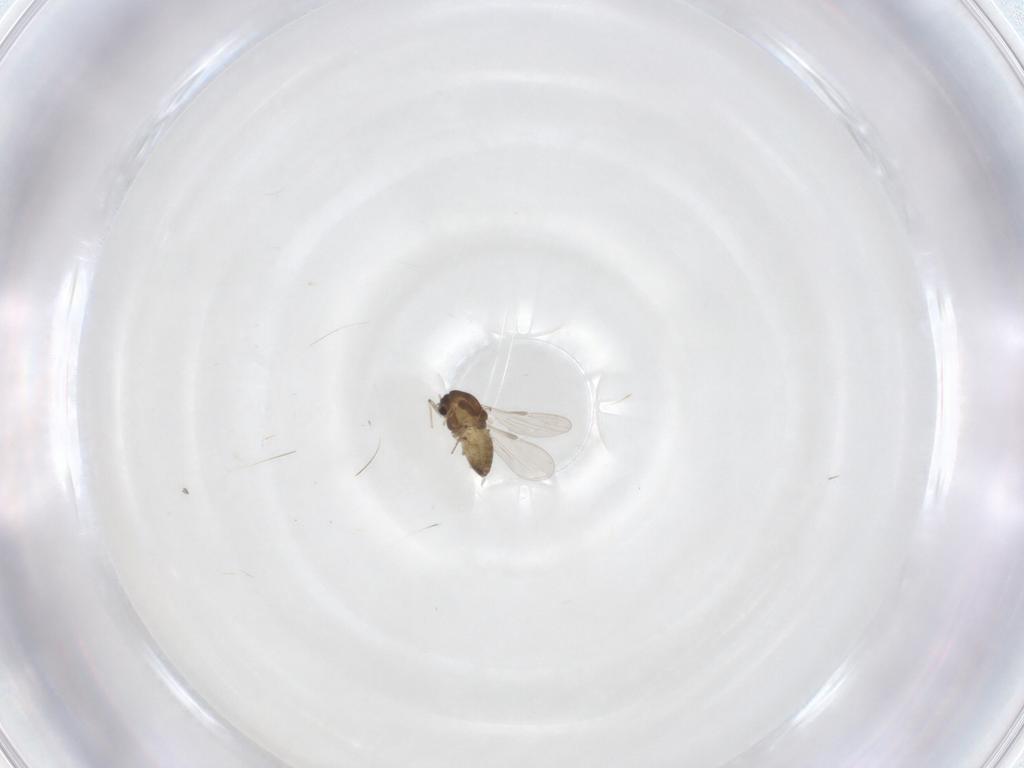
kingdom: Animalia
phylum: Arthropoda
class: Insecta
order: Diptera
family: Chironomidae
